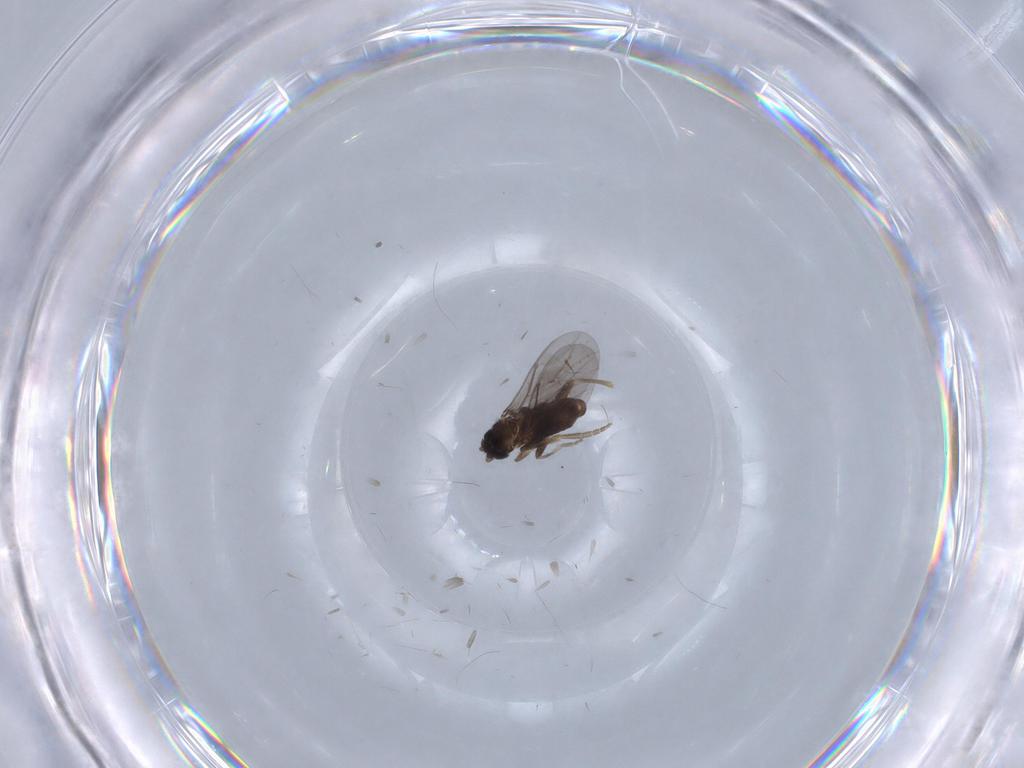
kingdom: Animalia
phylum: Arthropoda
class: Insecta
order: Diptera
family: Chironomidae
